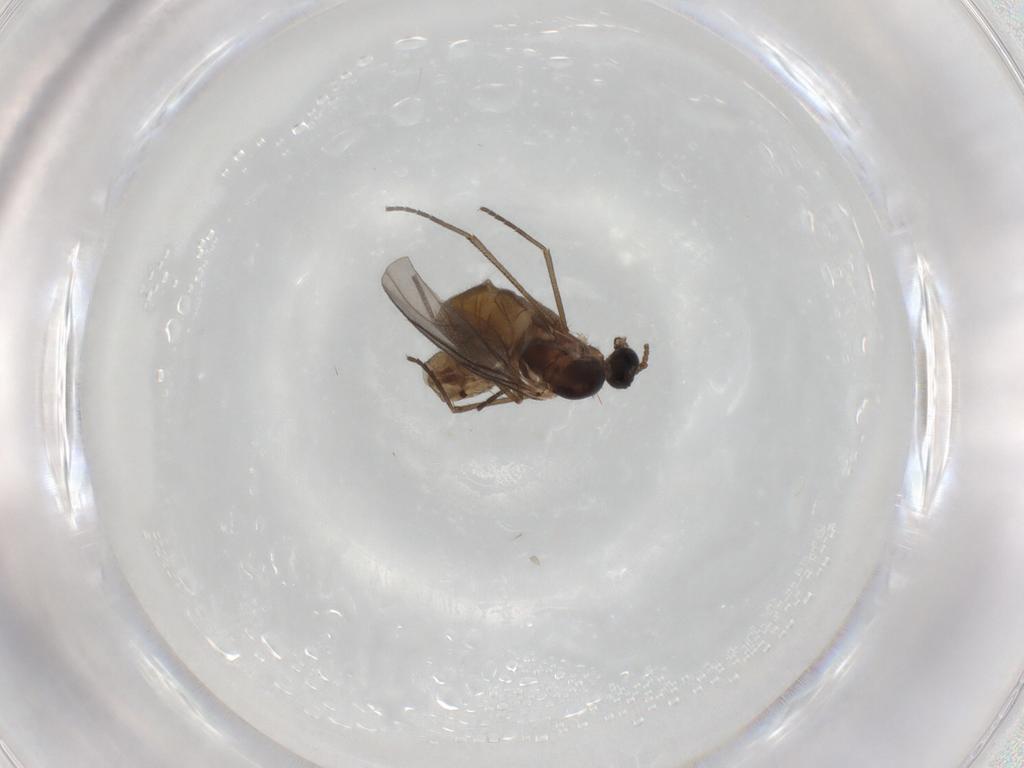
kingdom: Animalia
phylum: Arthropoda
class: Insecta
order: Diptera
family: Sciaridae
